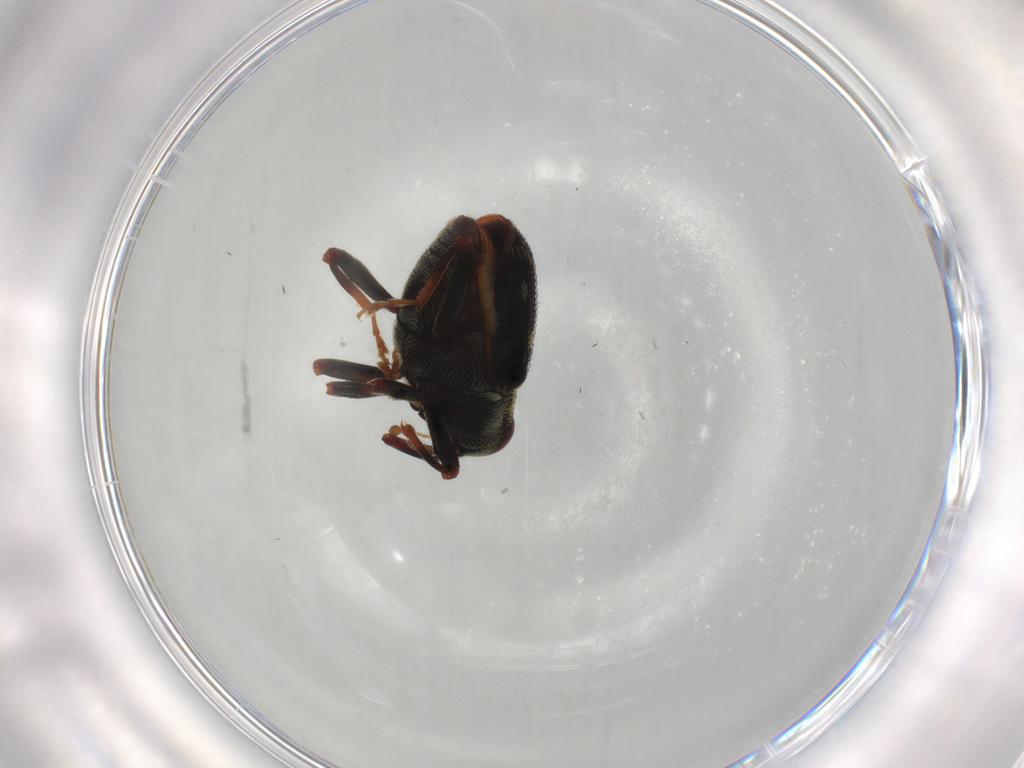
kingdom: Animalia
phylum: Arthropoda
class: Insecta
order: Coleoptera
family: Curculionidae
